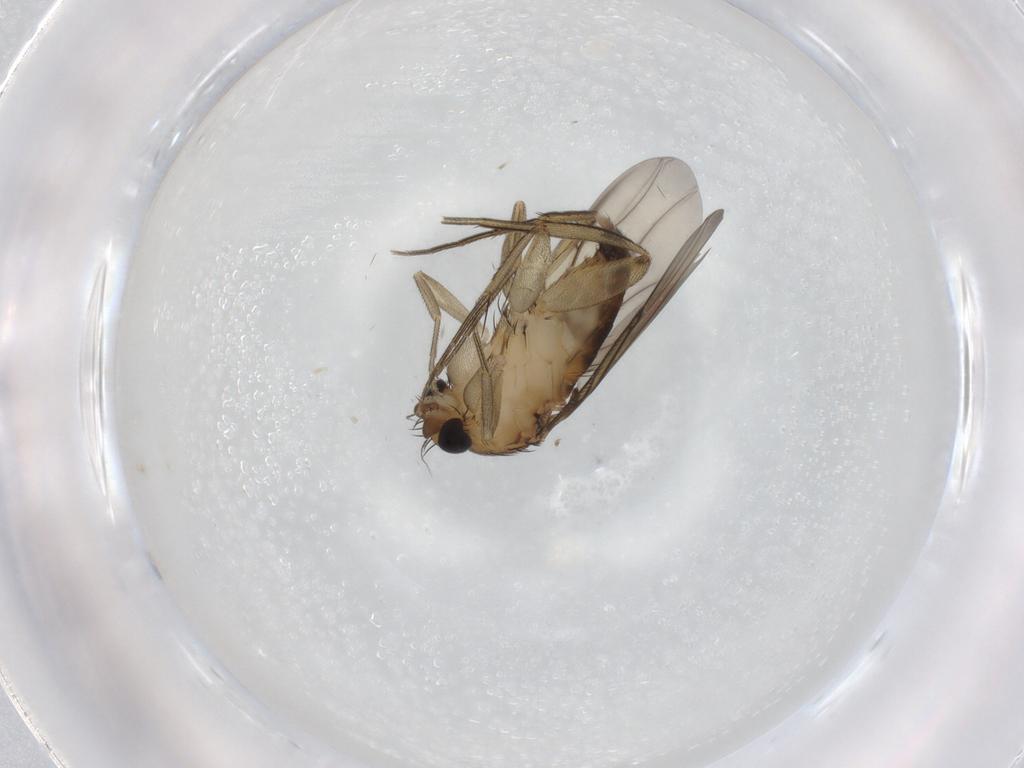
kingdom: Animalia
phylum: Arthropoda
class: Insecta
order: Diptera
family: Phoridae
